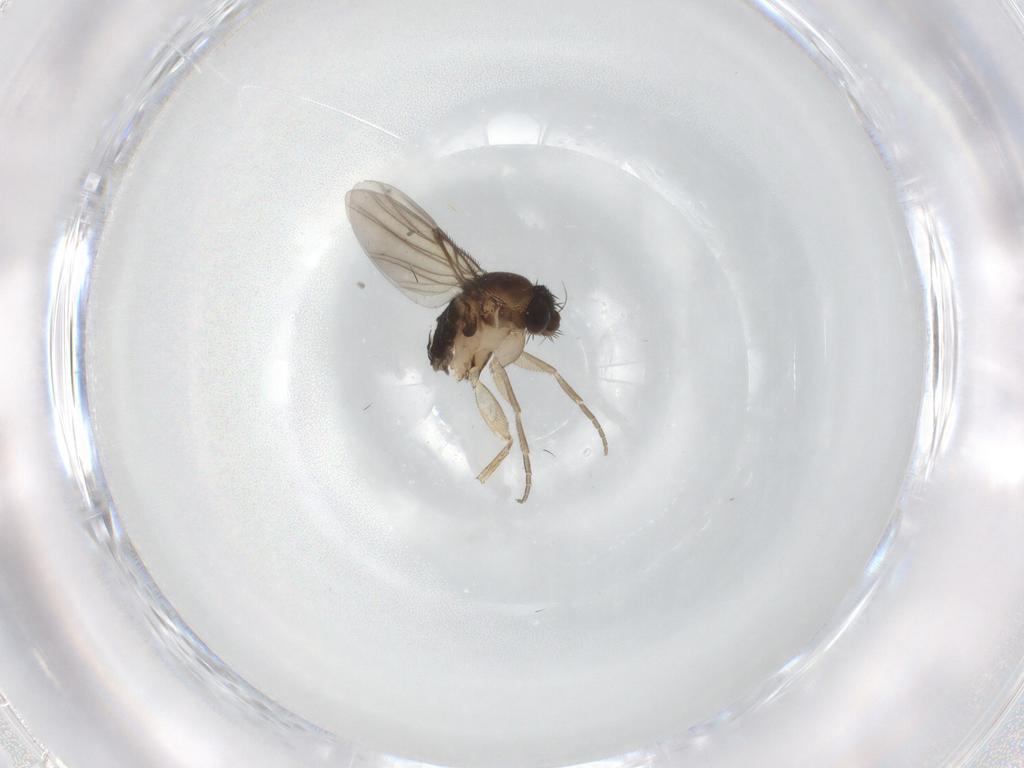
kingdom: Animalia
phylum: Arthropoda
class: Insecta
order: Diptera
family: Phoridae
